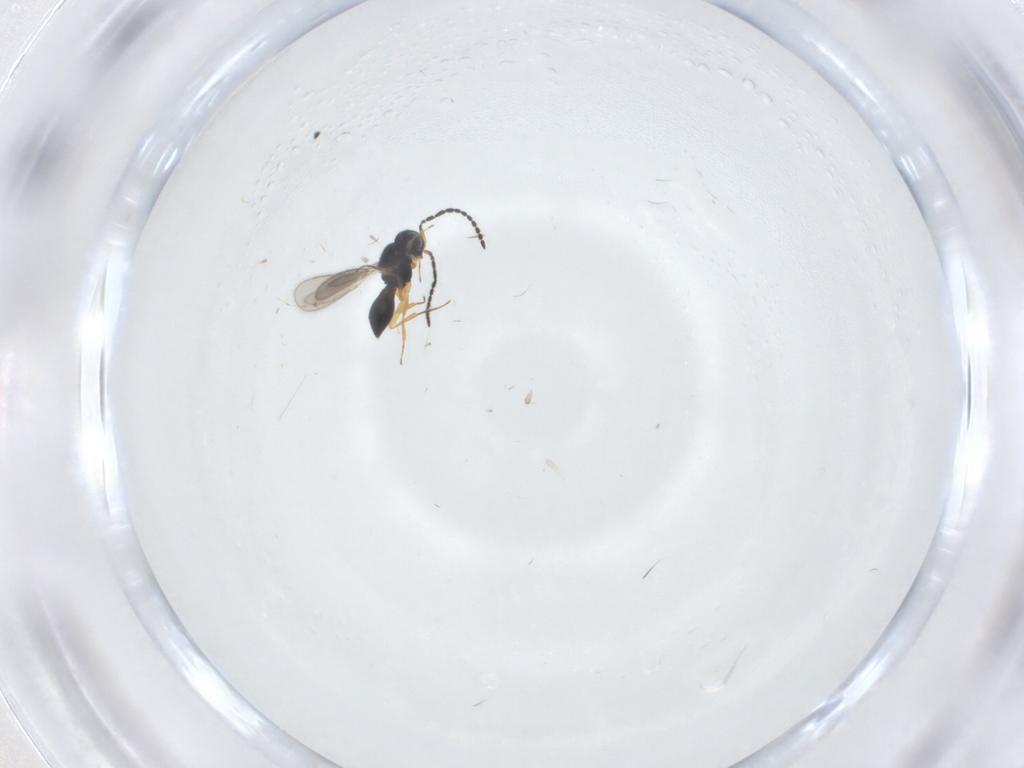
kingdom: Animalia
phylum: Arthropoda
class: Insecta
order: Hymenoptera
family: Scelionidae
